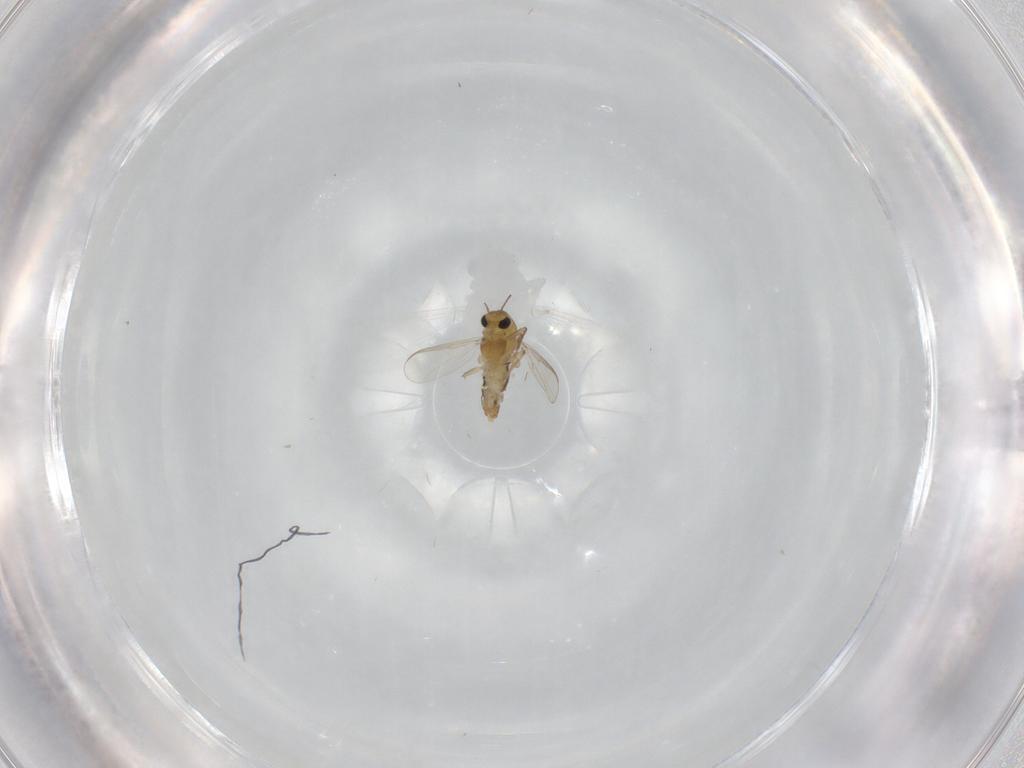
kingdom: Animalia
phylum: Arthropoda
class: Insecta
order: Diptera
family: Chironomidae
